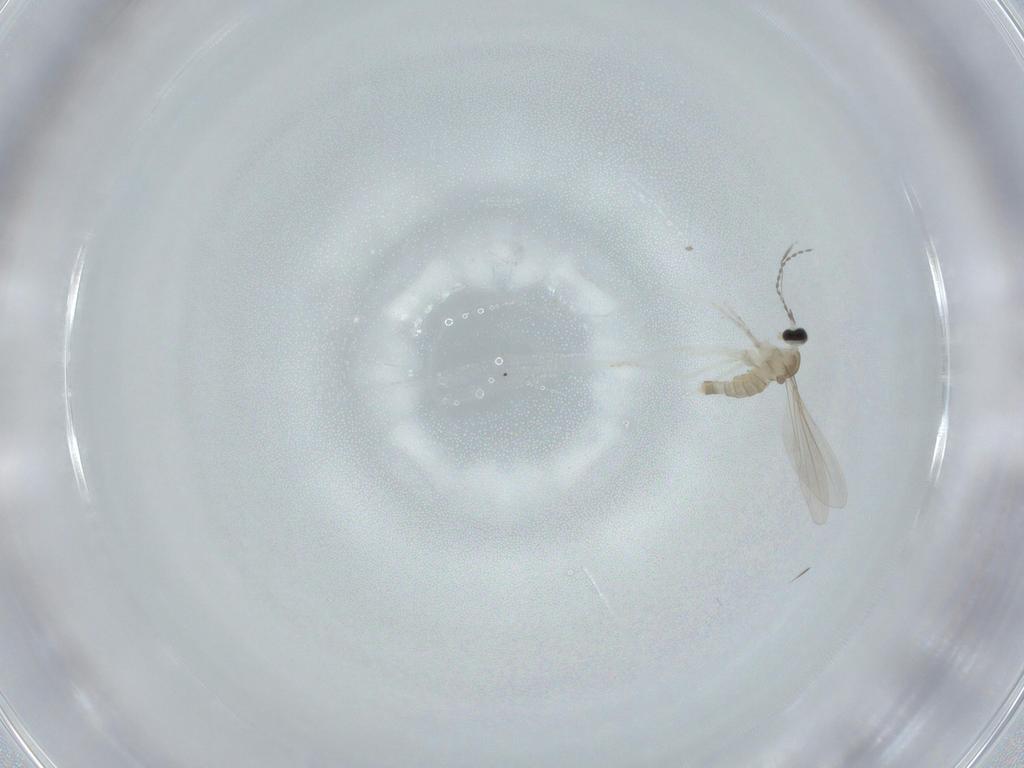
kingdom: Animalia
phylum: Arthropoda
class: Insecta
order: Diptera
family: Cecidomyiidae
